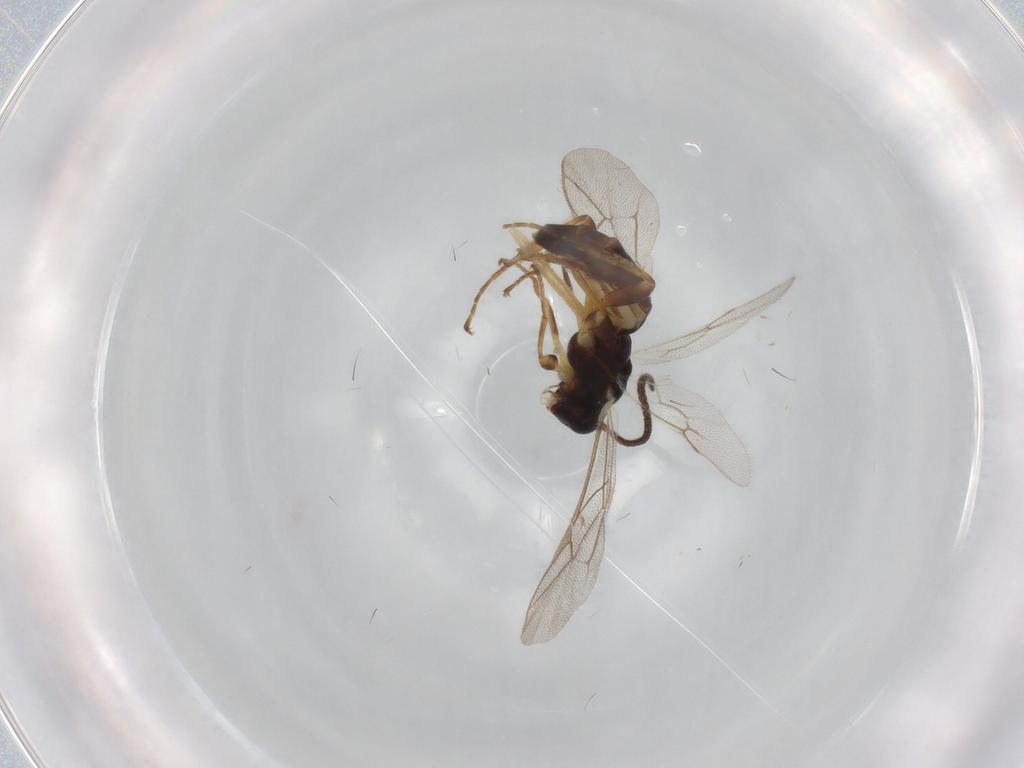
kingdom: Animalia
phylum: Arthropoda
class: Insecta
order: Hymenoptera
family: Ichneumonidae
